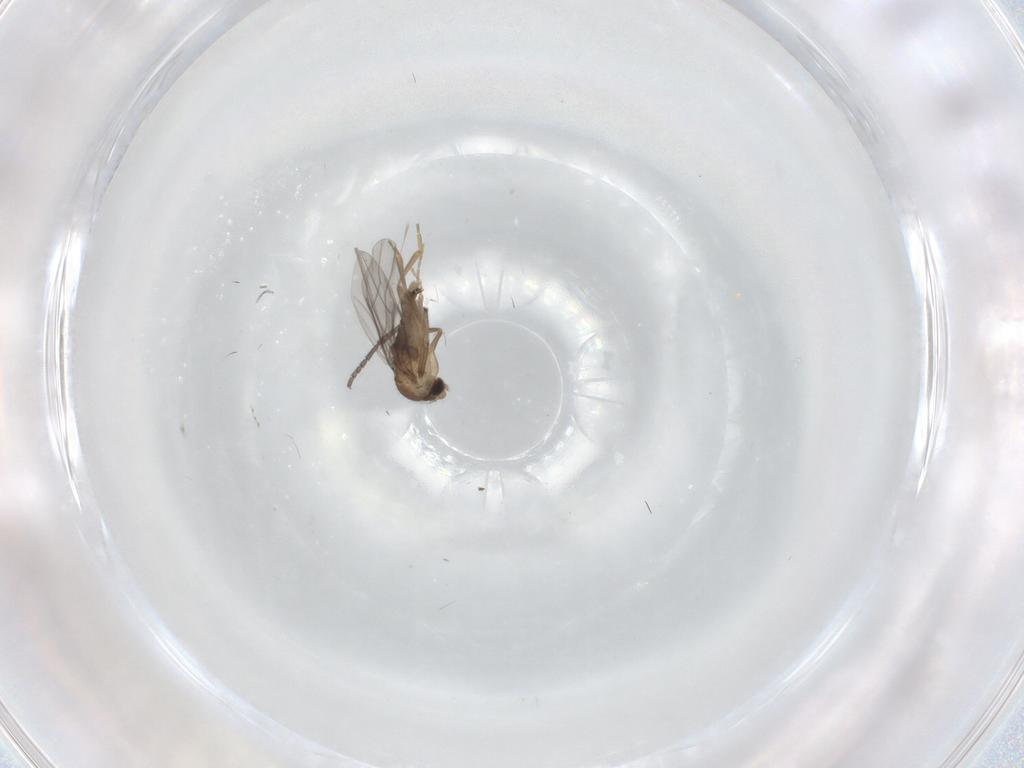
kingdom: Animalia
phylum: Arthropoda
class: Insecta
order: Diptera
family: Sciaridae
